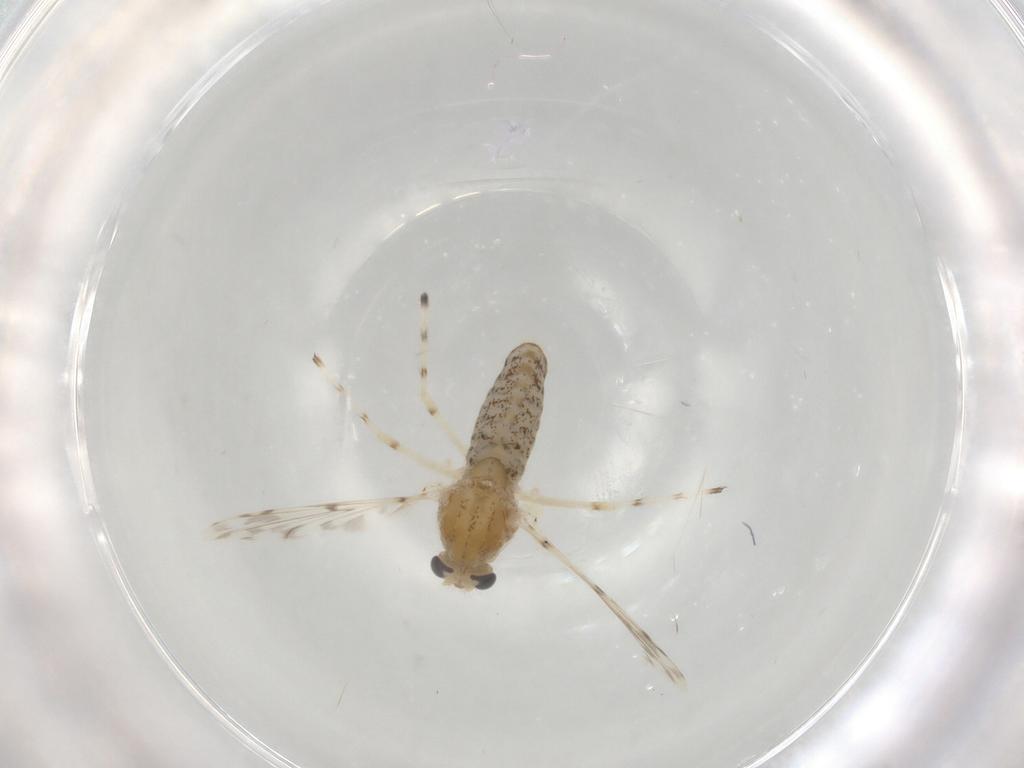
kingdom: Animalia
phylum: Arthropoda
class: Insecta
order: Diptera
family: Chironomidae
